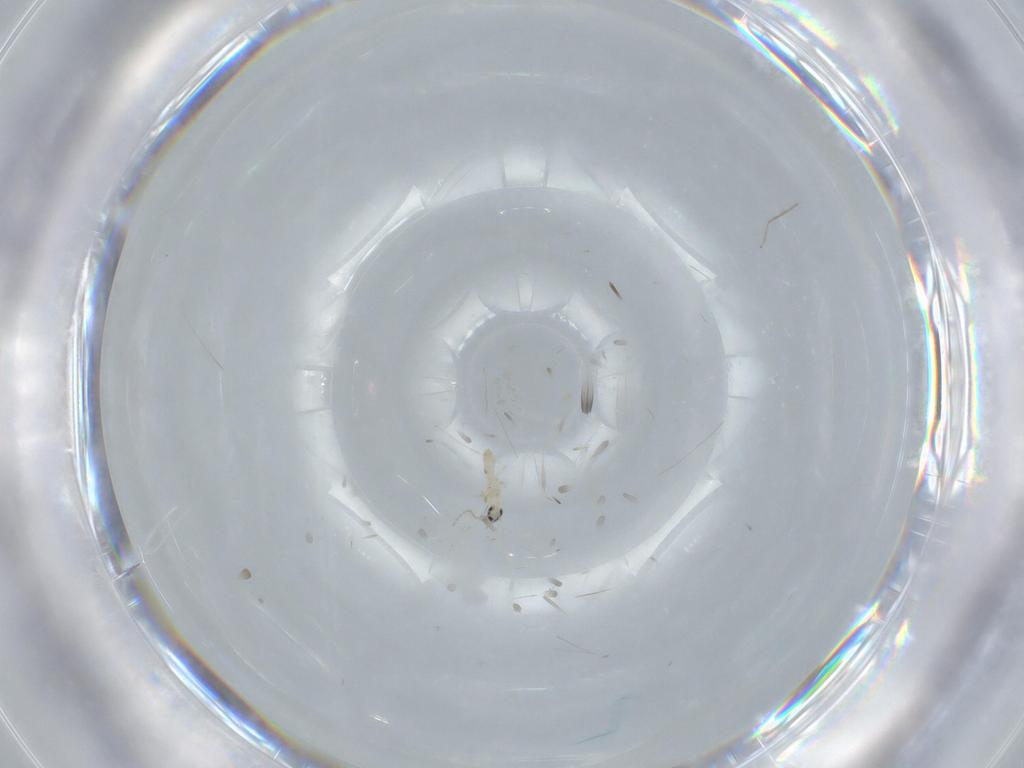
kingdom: Animalia
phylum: Arthropoda
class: Insecta
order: Diptera
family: Cecidomyiidae
